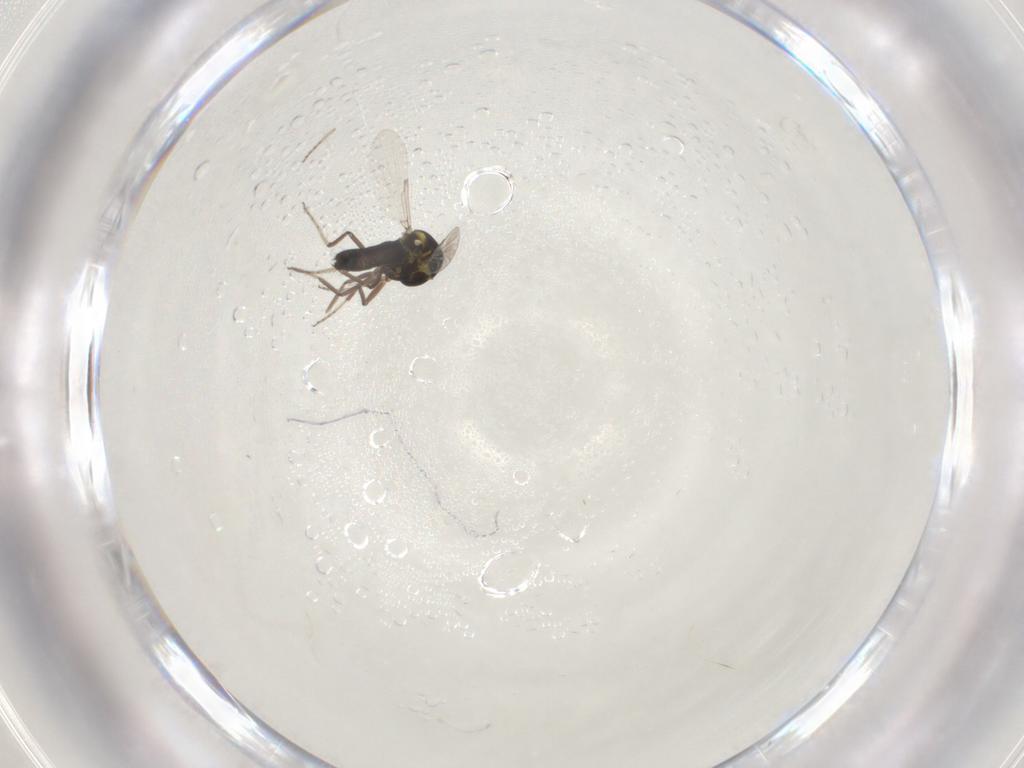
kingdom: Animalia
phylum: Arthropoda
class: Insecta
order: Diptera
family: Ceratopogonidae
